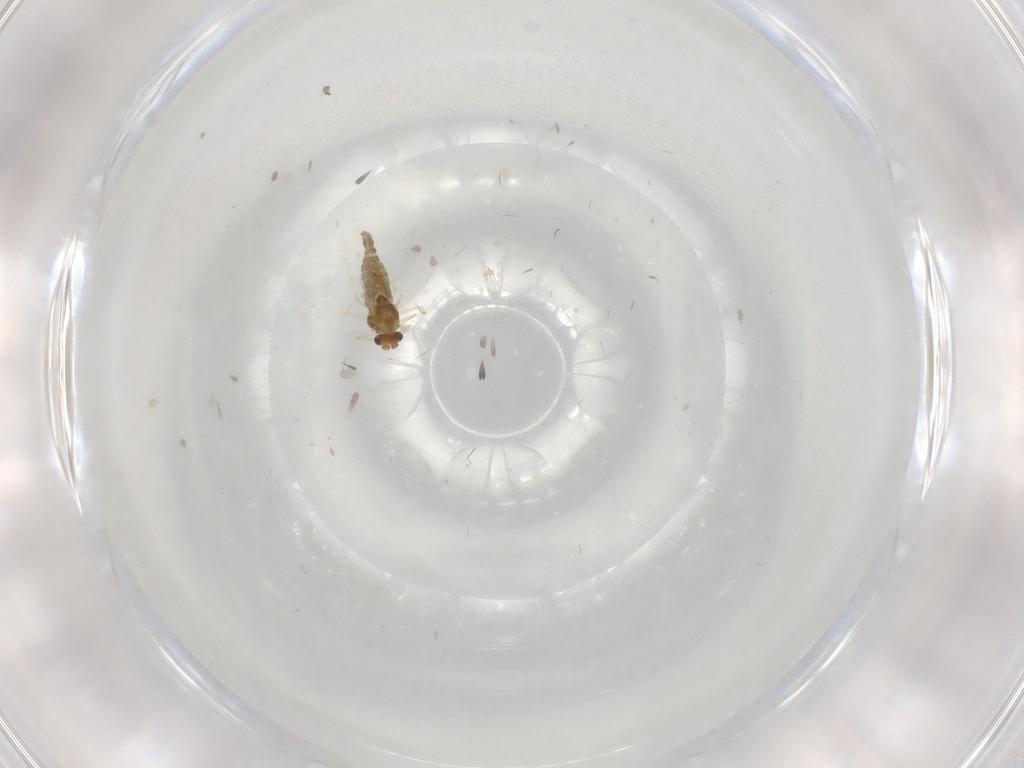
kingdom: Animalia
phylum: Arthropoda
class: Insecta
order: Diptera
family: Chironomidae
